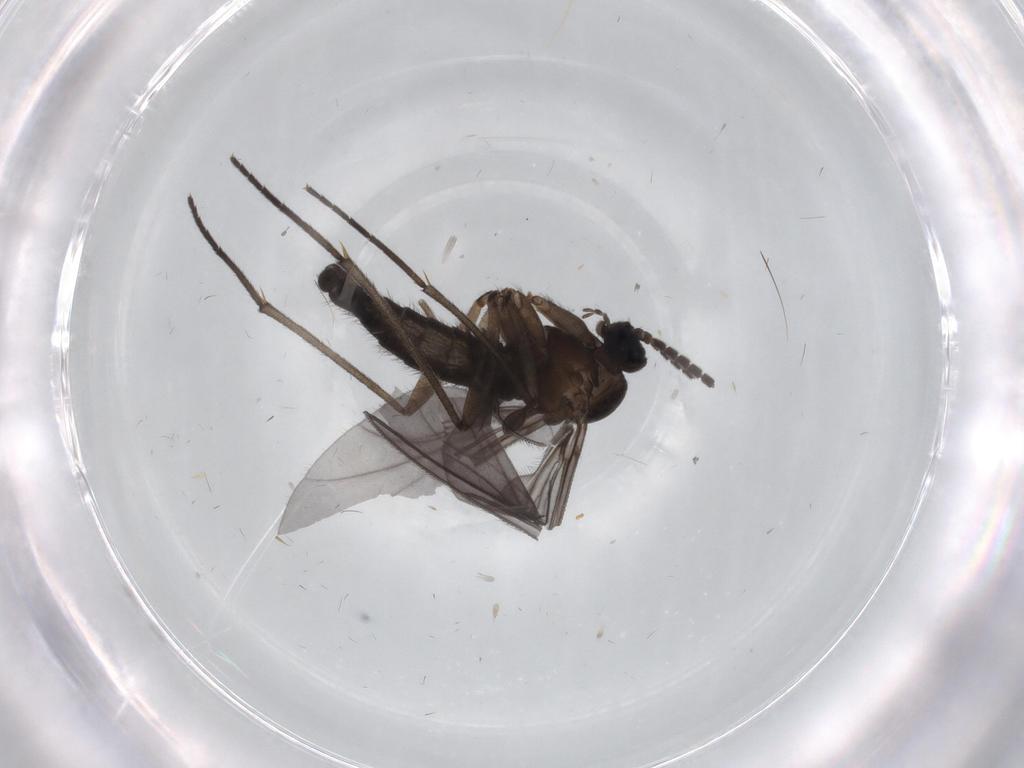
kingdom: Animalia
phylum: Arthropoda
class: Insecta
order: Diptera
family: Sciaridae
